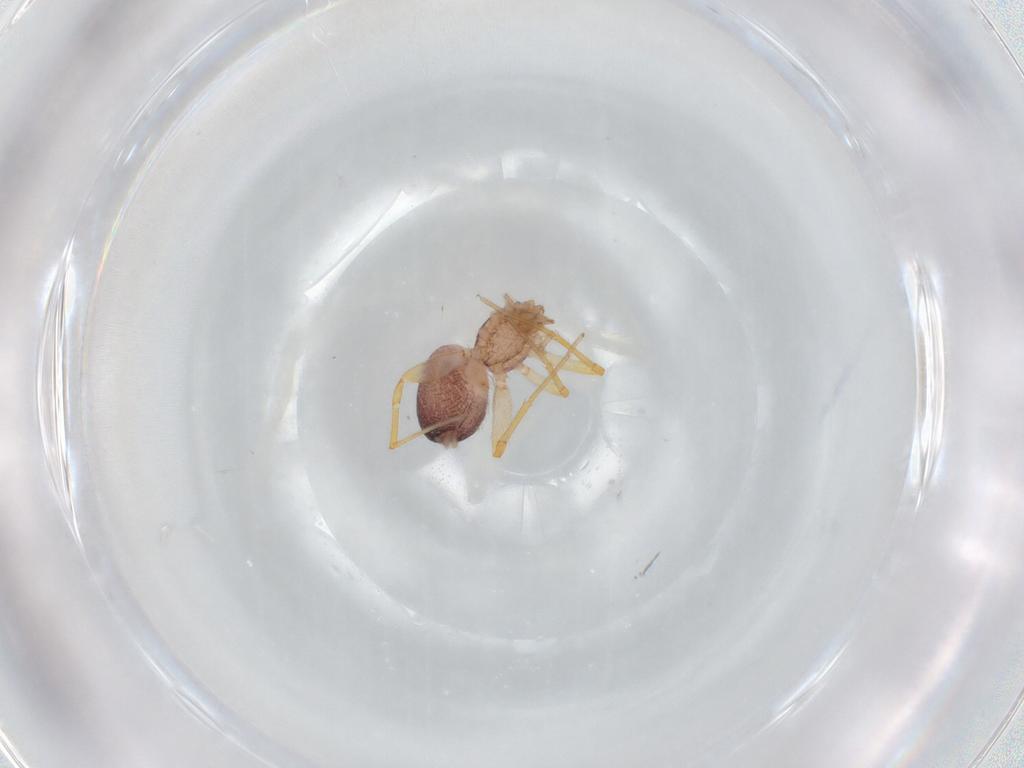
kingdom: Animalia
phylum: Arthropoda
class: Arachnida
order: Araneae
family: Idiopidae
